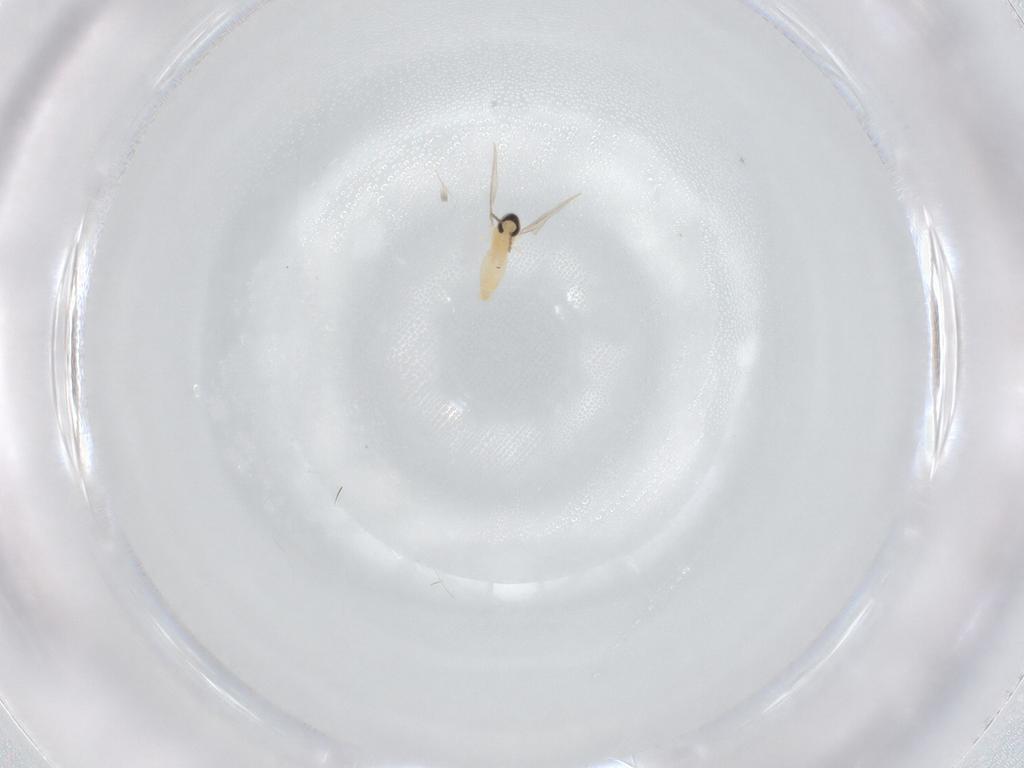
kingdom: Animalia
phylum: Arthropoda
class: Insecta
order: Diptera
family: Cecidomyiidae
